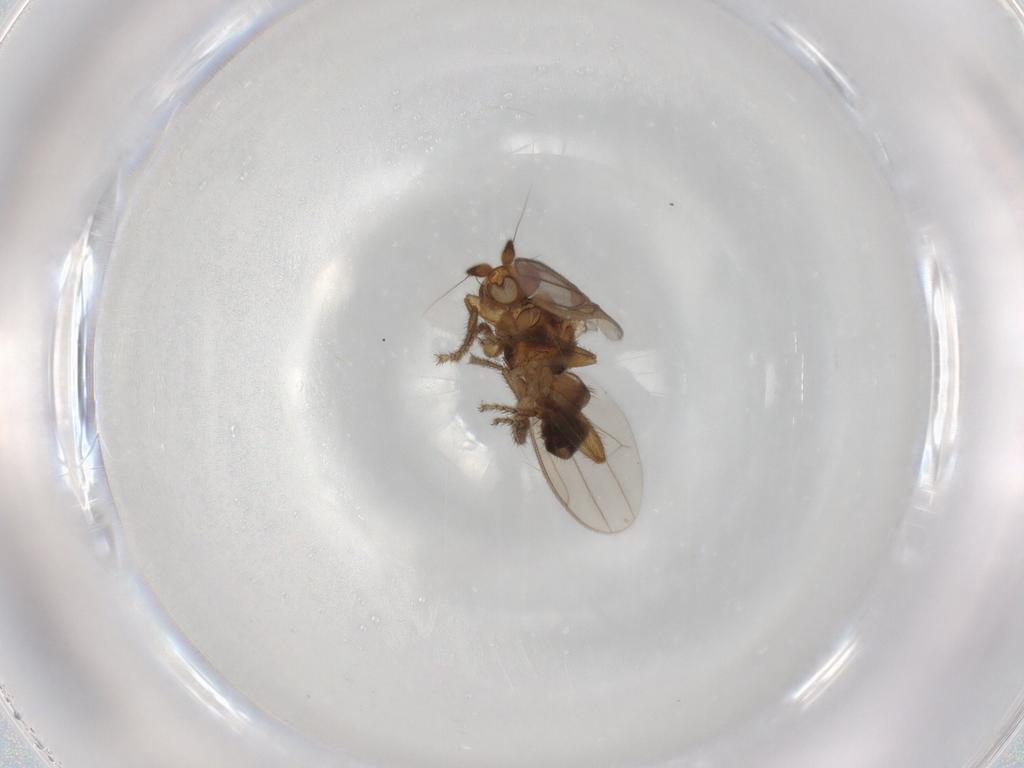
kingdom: Animalia
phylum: Arthropoda
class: Insecta
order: Diptera
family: Sphaeroceridae
